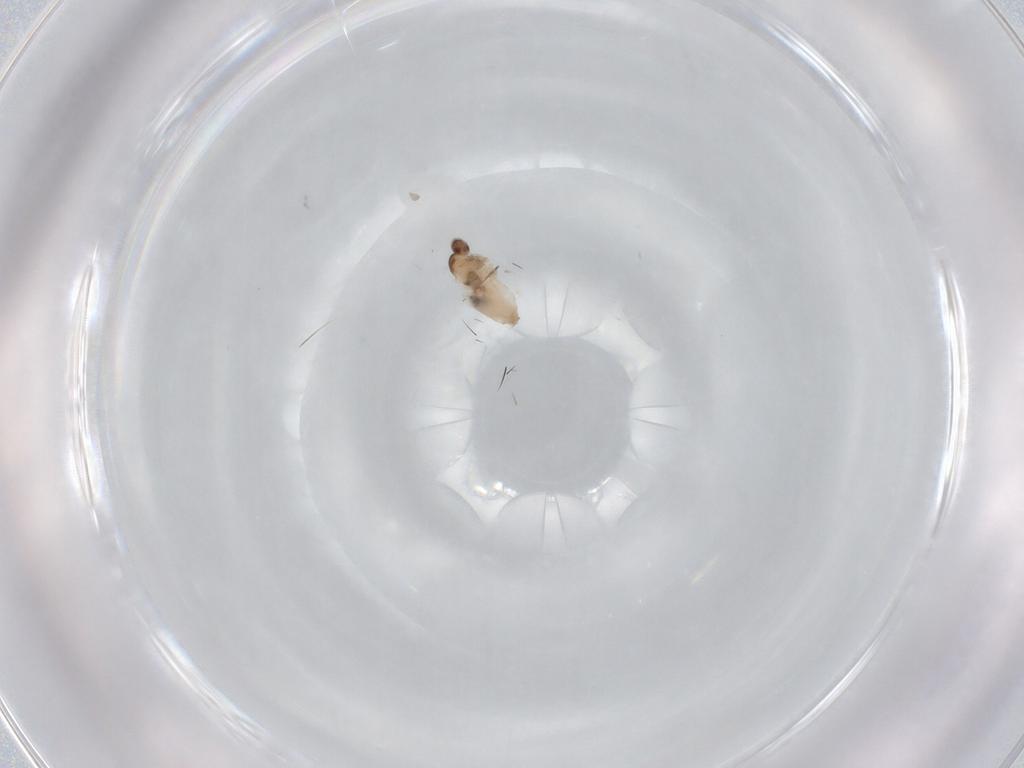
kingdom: Animalia
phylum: Arthropoda
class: Insecta
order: Diptera
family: Cecidomyiidae
